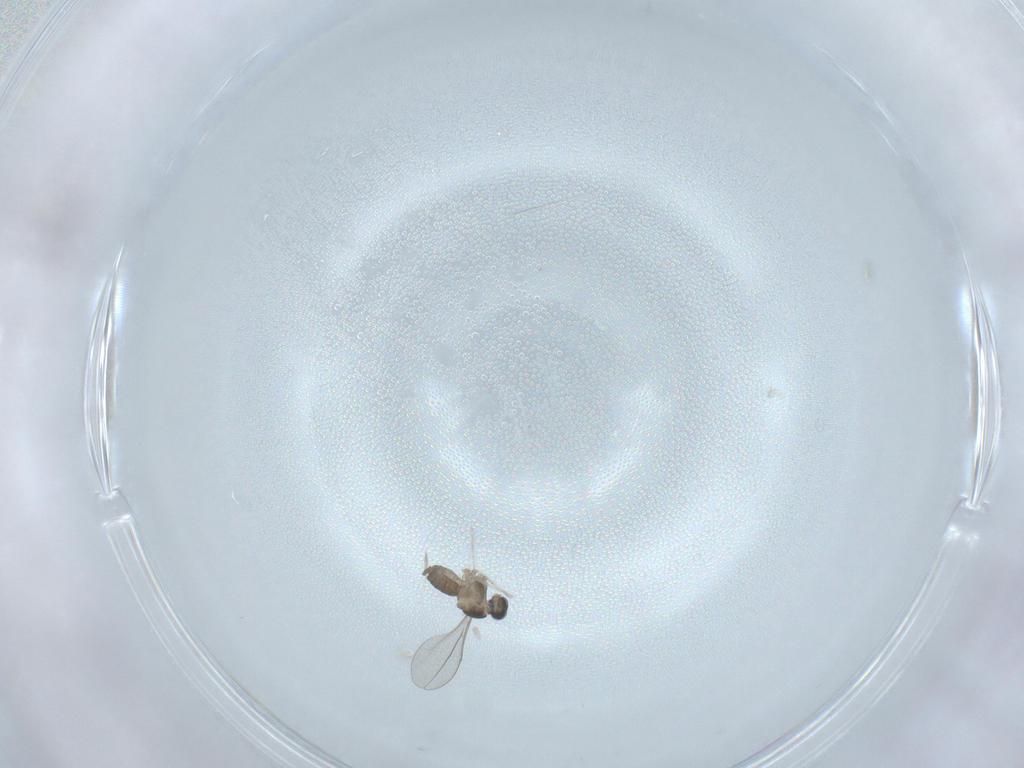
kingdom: Animalia
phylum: Arthropoda
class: Insecta
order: Diptera
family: Cecidomyiidae
